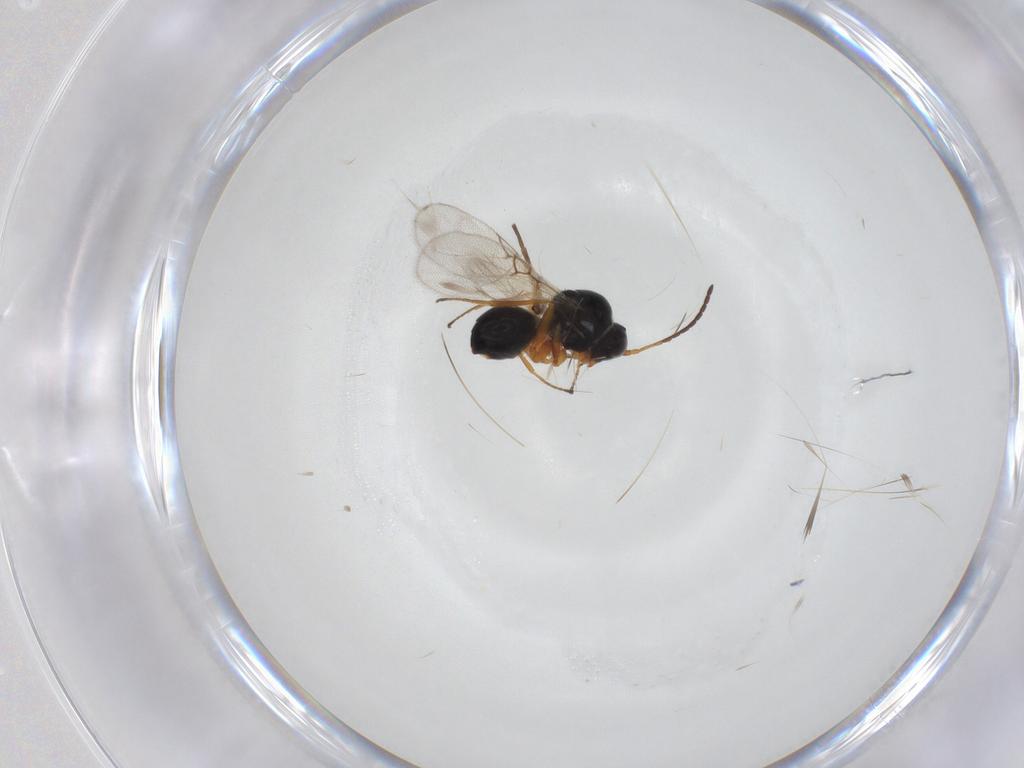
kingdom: Animalia
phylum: Arthropoda
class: Insecta
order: Hymenoptera
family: Figitidae
